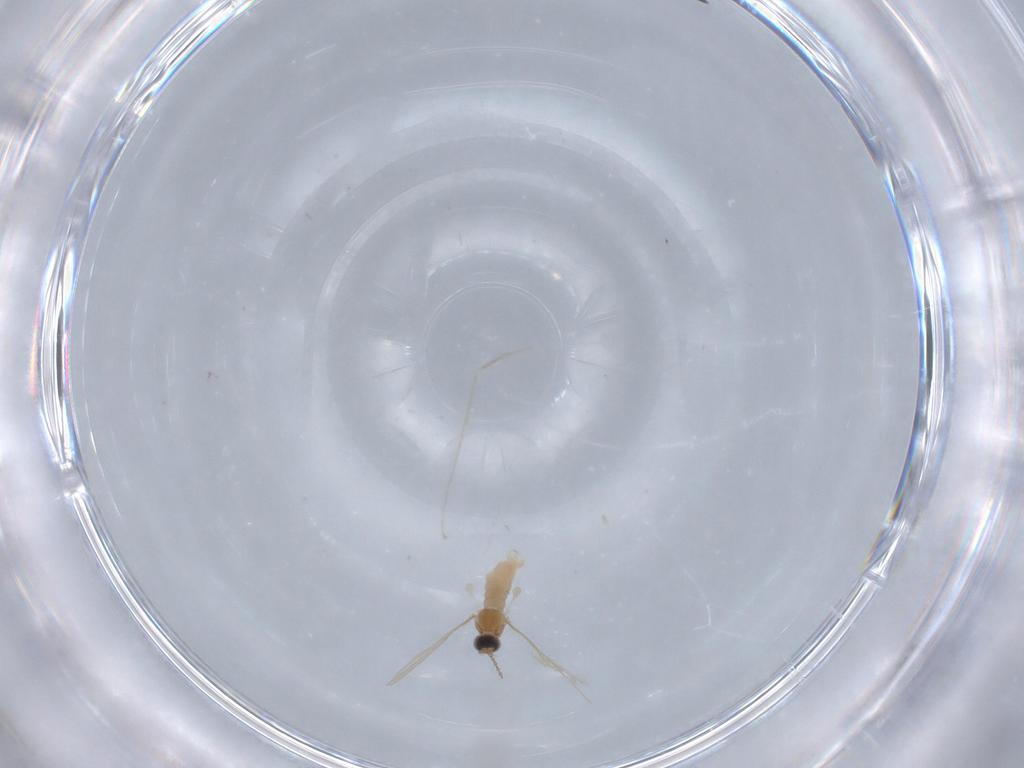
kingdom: Animalia
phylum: Arthropoda
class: Insecta
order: Diptera
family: Cecidomyiidae
